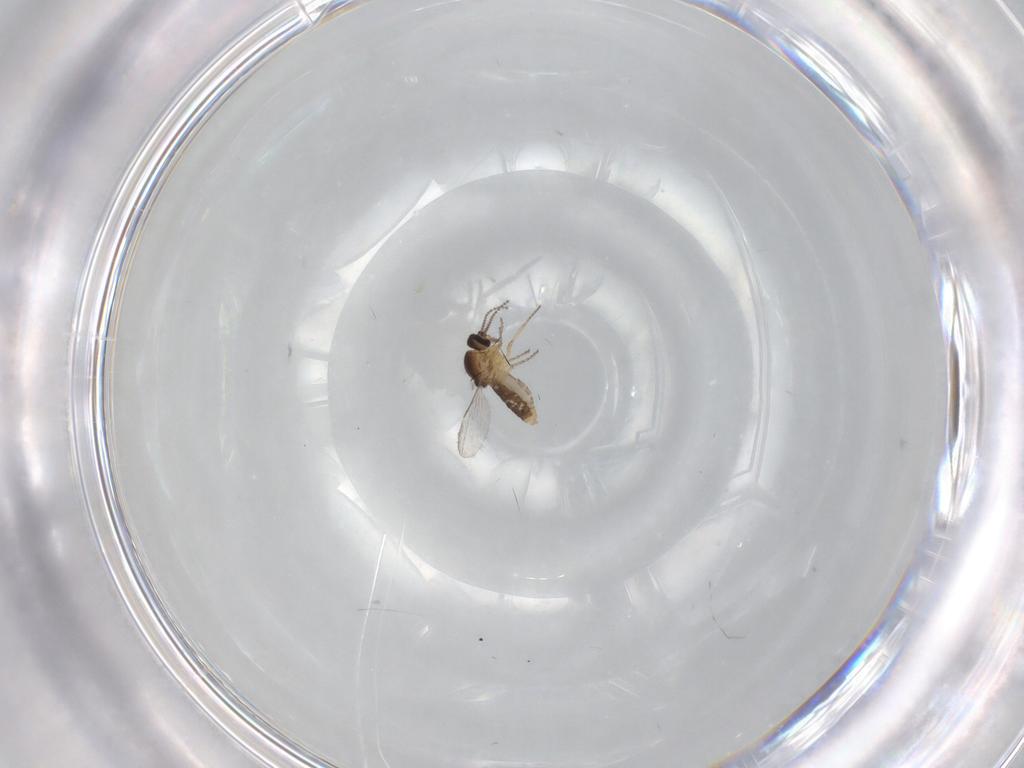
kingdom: Animalia
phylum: Arthropoda
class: Insecta
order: Diptera
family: Ceratopogonidae
